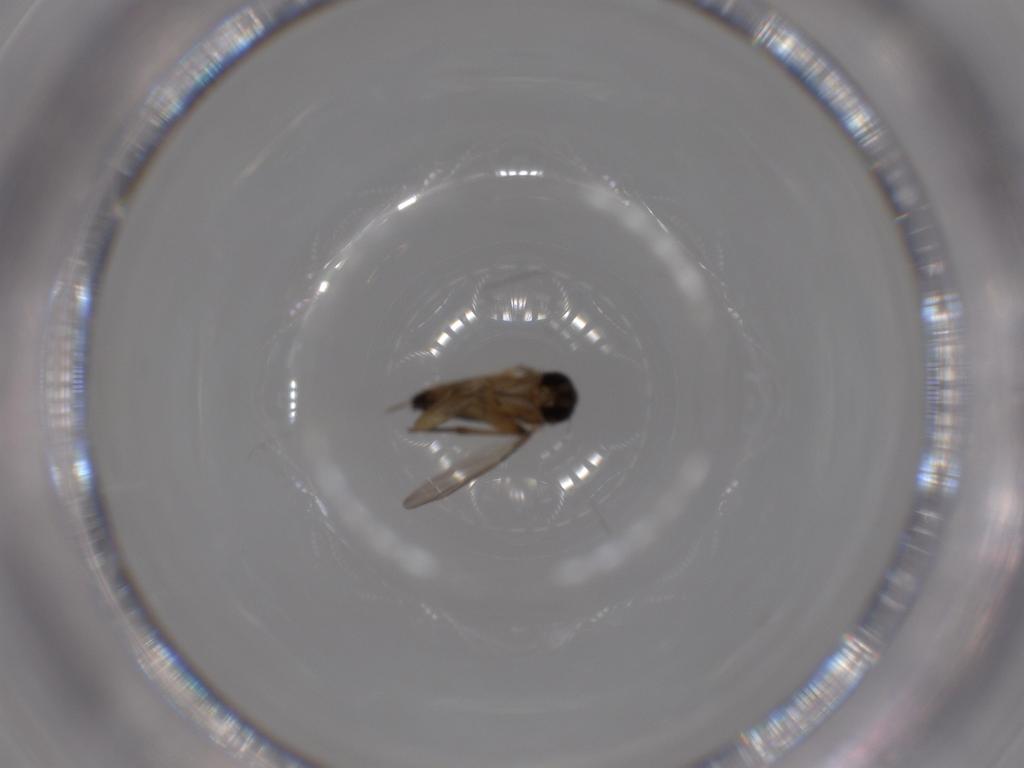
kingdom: Animalia
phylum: Arthropoda
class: Insecta
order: Diptera
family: Phoridae
